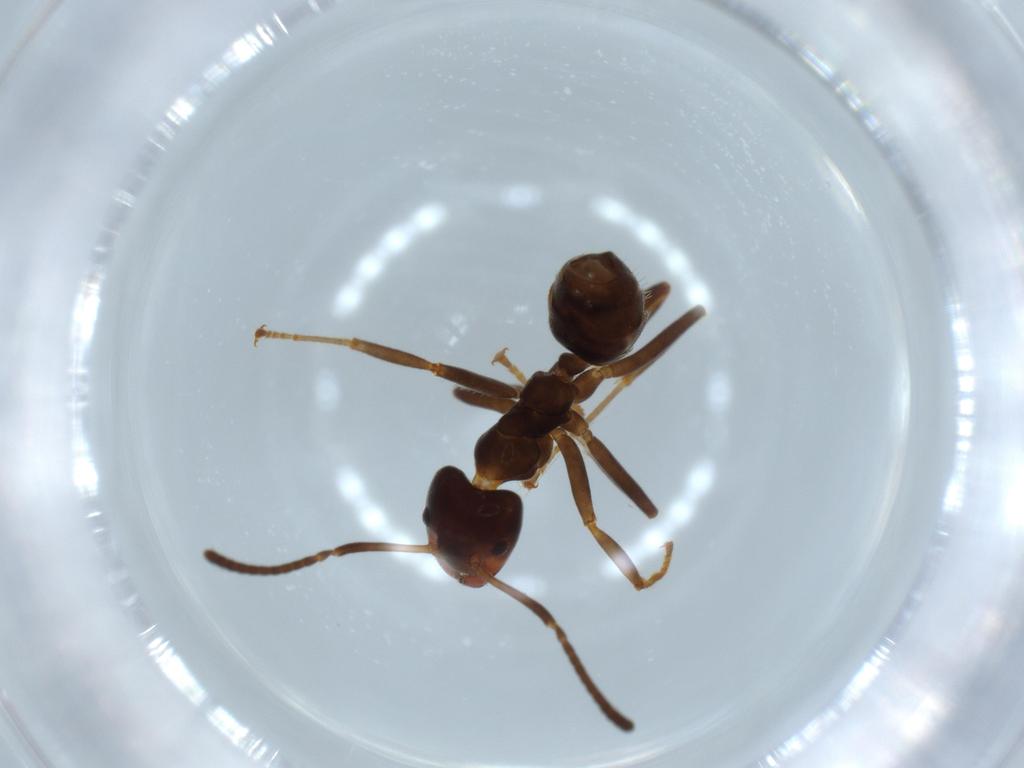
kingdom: Animalia
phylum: Arthropoda
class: Insecta
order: Hymenoptera
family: Formicidae
